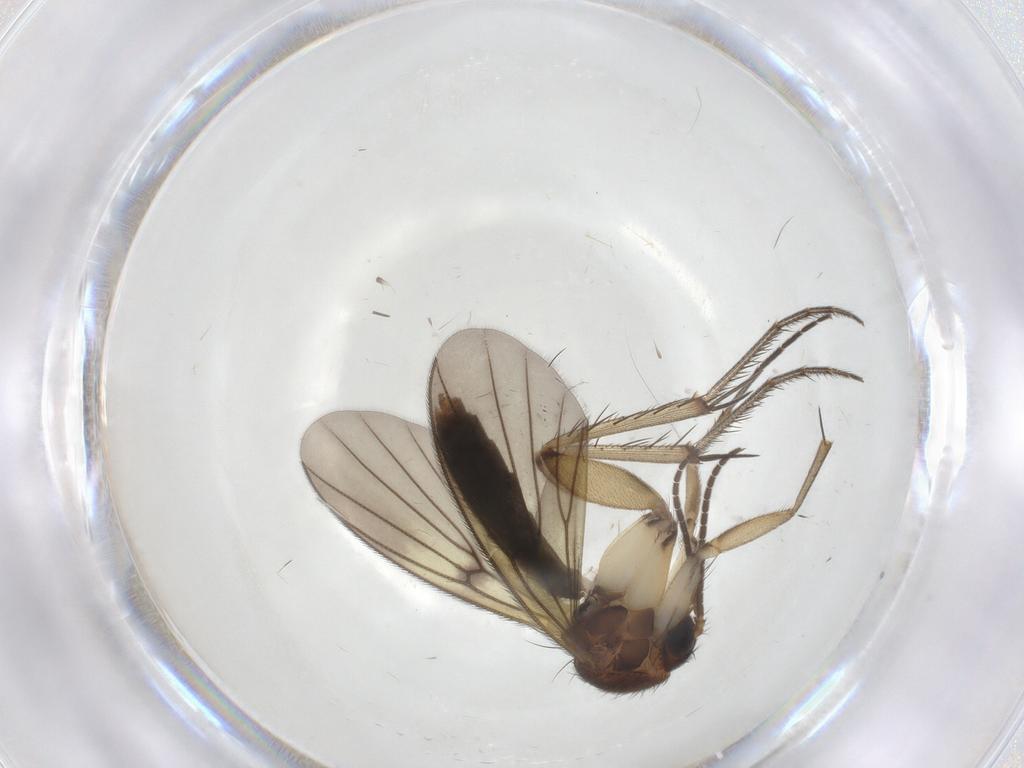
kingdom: Animalia
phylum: Arthropoda
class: Insecta
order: Diptera
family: Mycetophilidae
